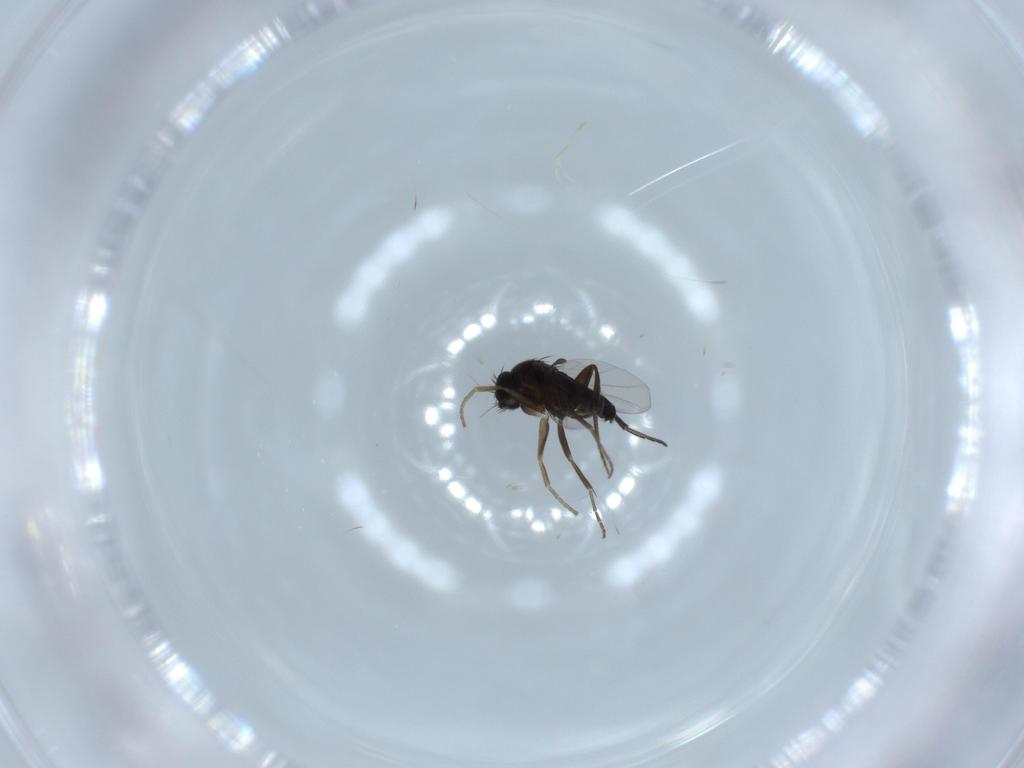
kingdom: Animalia
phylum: Arthropoda
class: Insecta
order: Diptera
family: Phoridae
